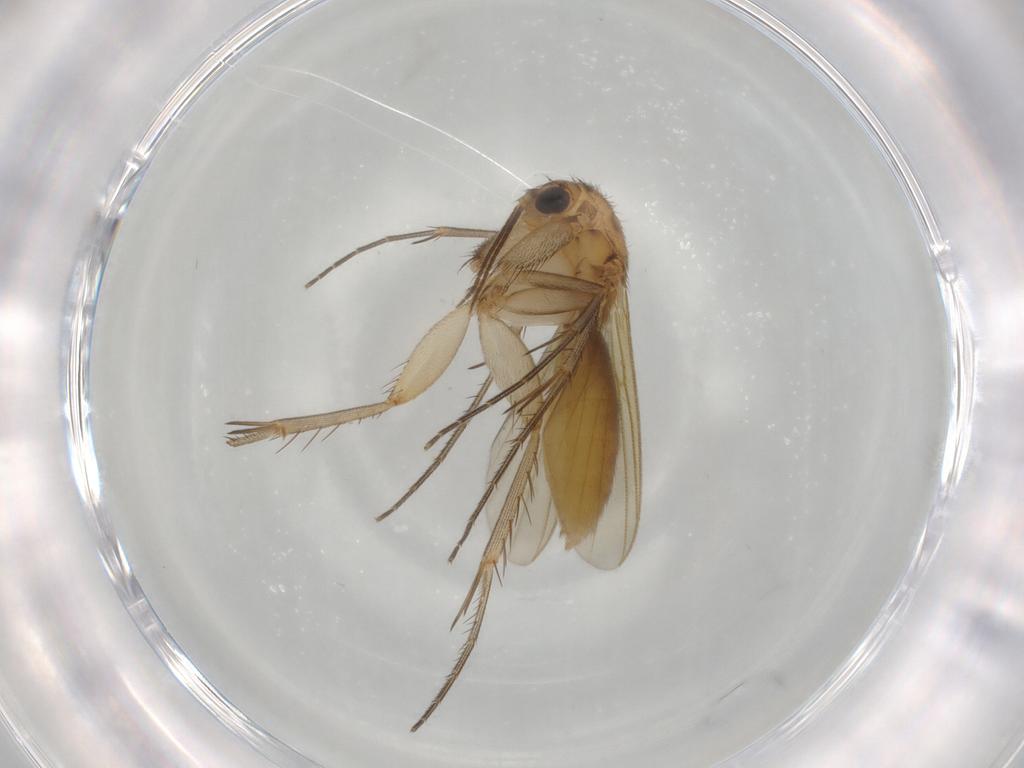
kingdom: Animalia
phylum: Arthropoda
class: Insecta
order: Diptera
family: Mycetophilidae
